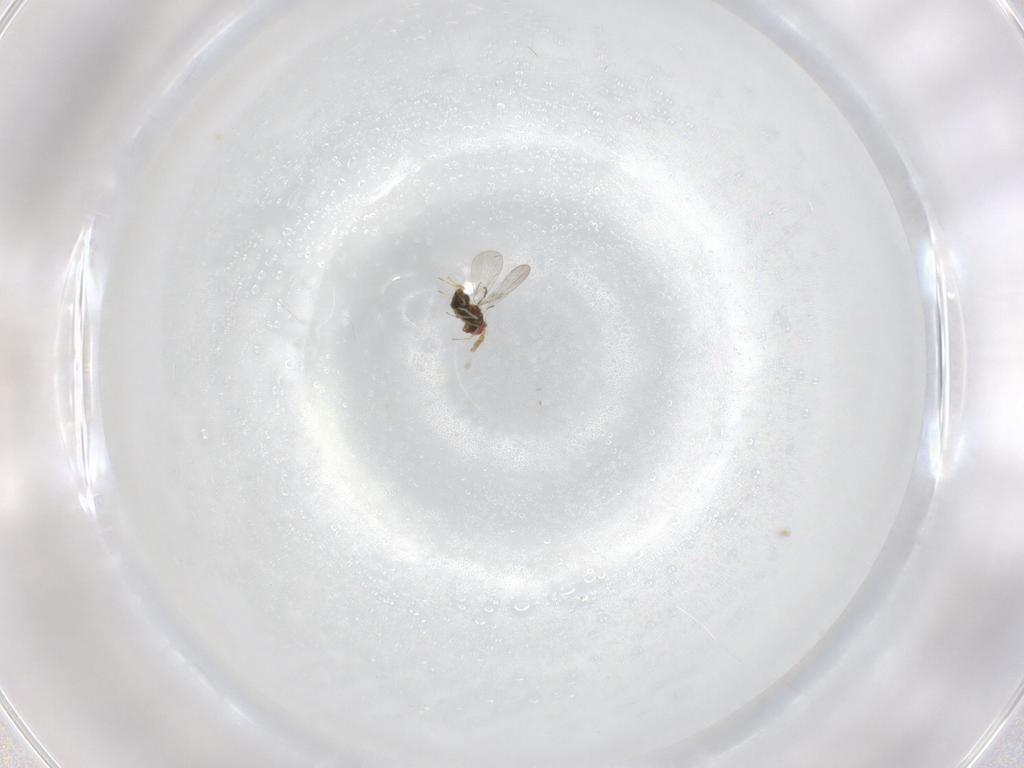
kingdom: Animalia
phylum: Arthropoda
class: Insecta
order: Hymenoptera
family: Trichogrammatidae
